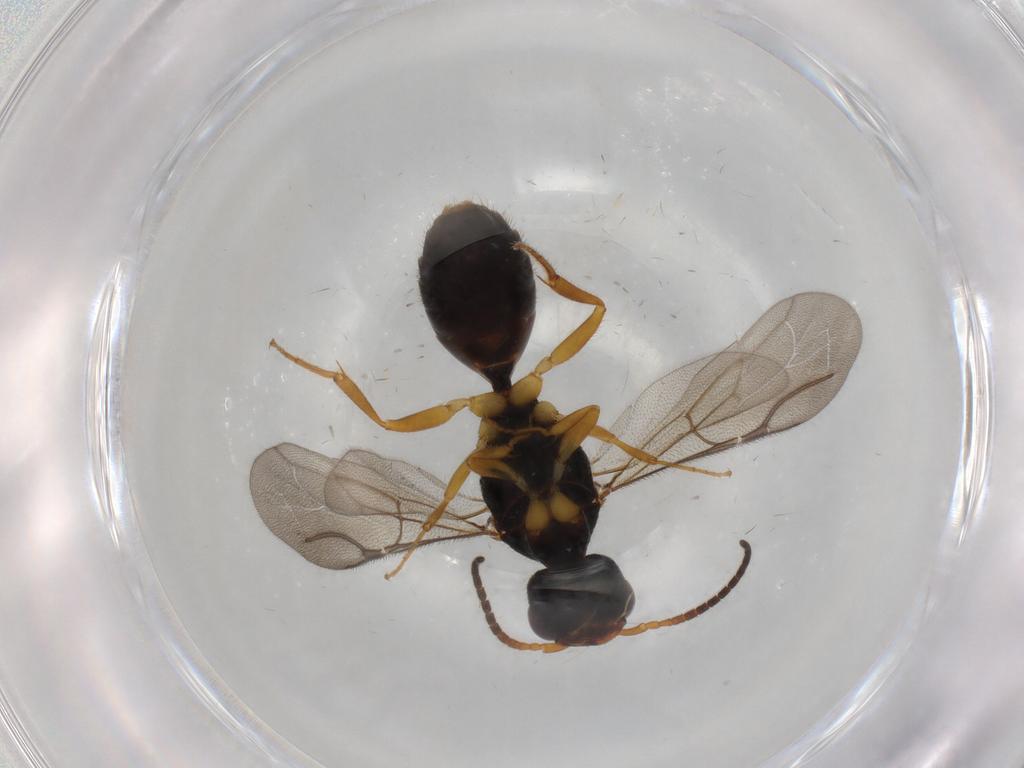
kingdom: Animalia
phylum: Arthropoda
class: Insecta
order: Hymenoptera
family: Bethylidae
